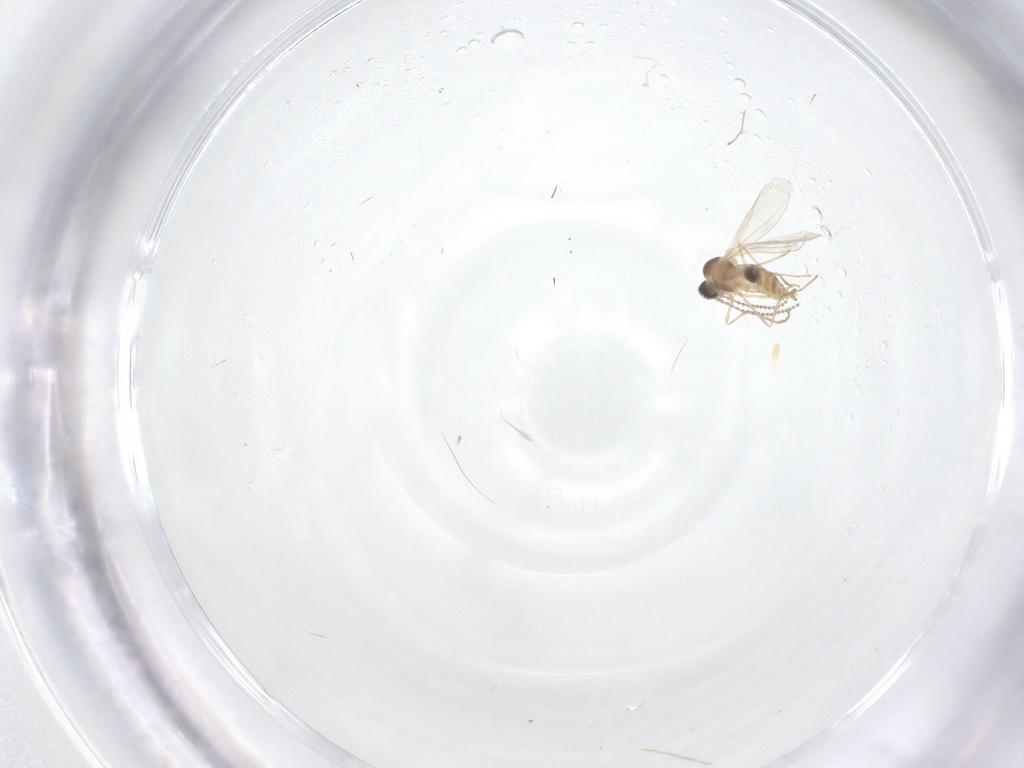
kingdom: Animalia
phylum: Arthropoda
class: Insecta
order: Diptera
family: Cecidomyiidae
